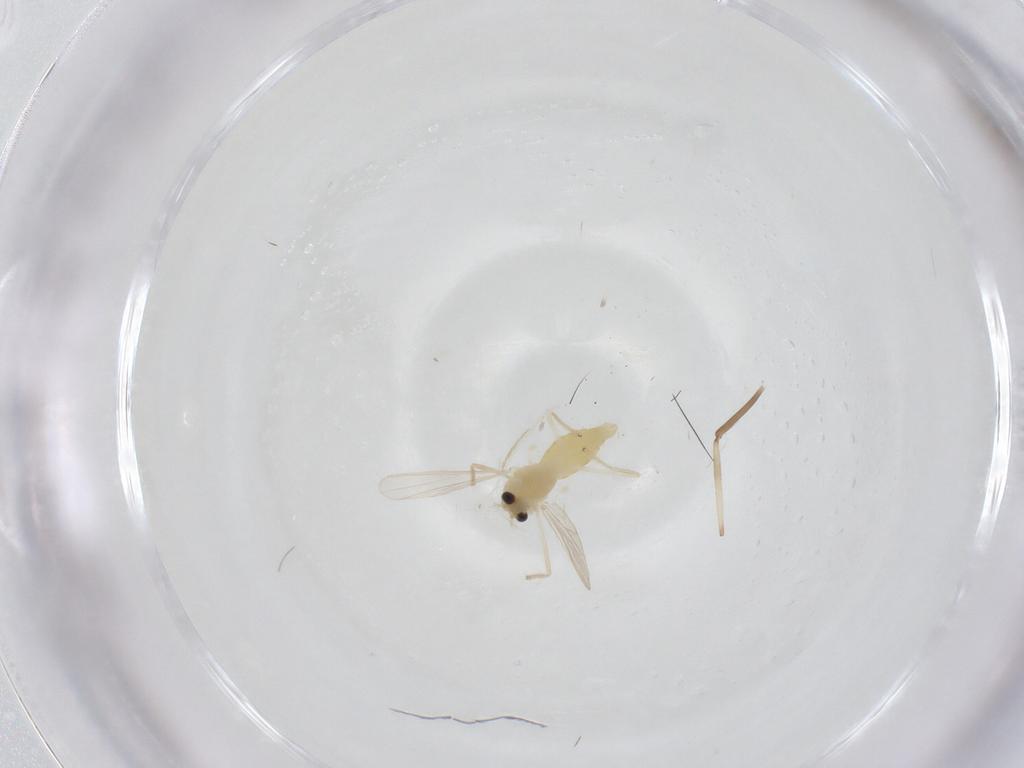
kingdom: Animalia
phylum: Arthropoda
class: Insecta
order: Diptera
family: Chironomidae
